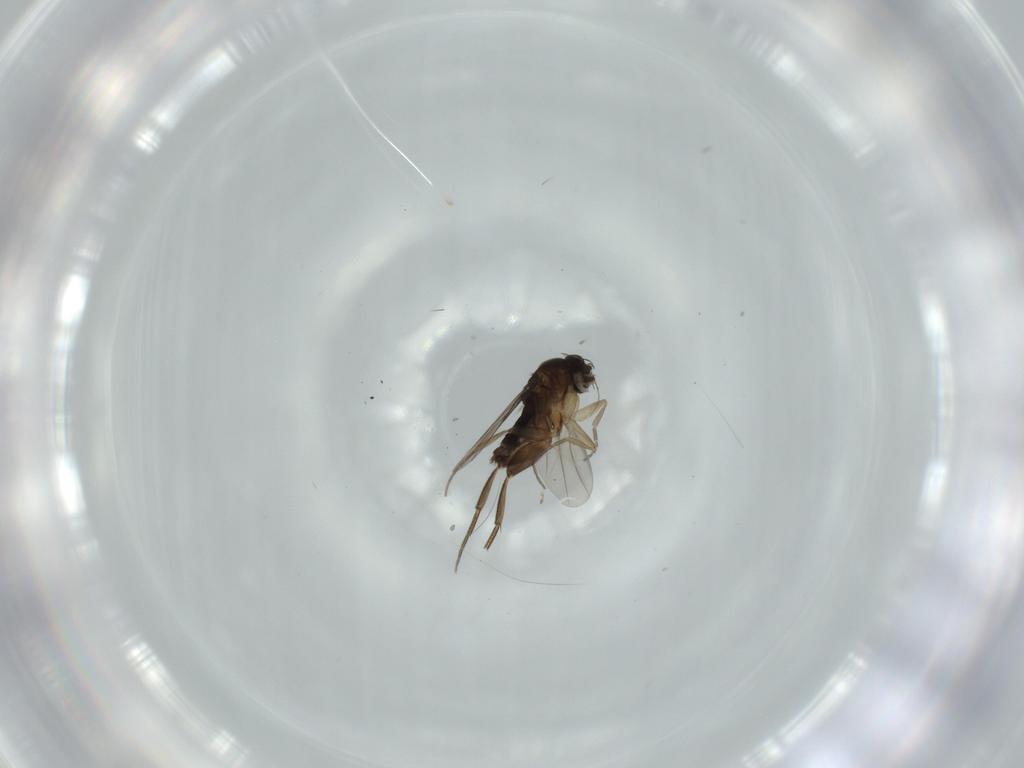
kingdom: Animalia
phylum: Arthropoda
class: Insecta
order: Diptera
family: Phoridae
